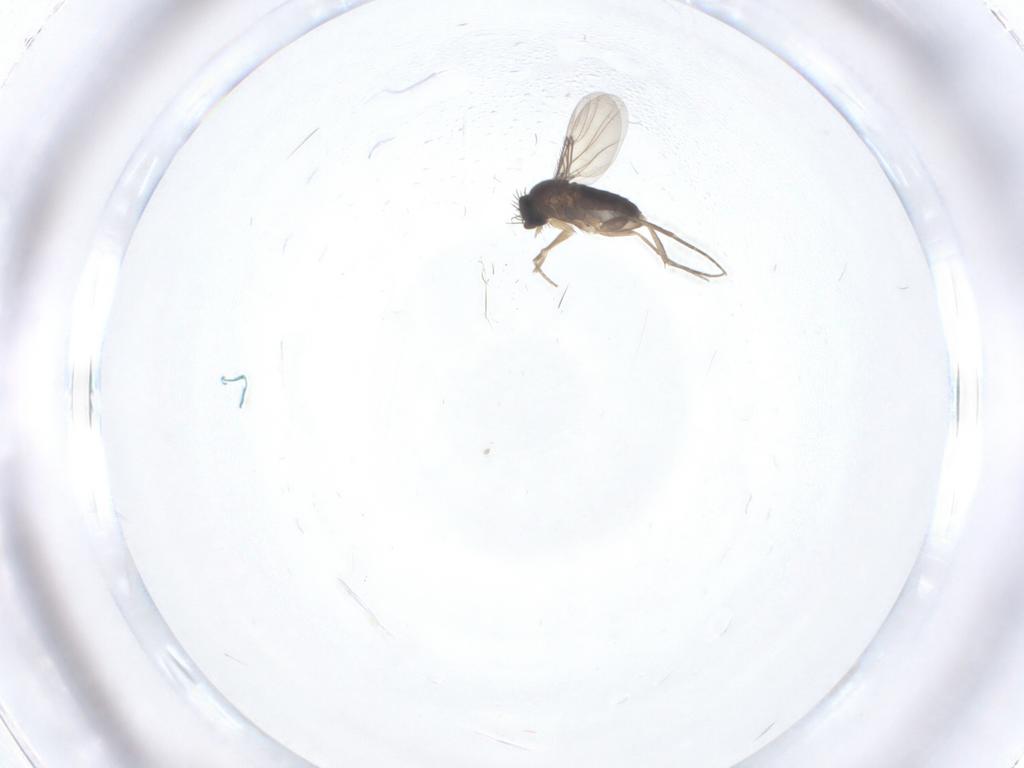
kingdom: Animalia
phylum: Arthropoda
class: Insecta
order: Diptera
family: Phoridae
